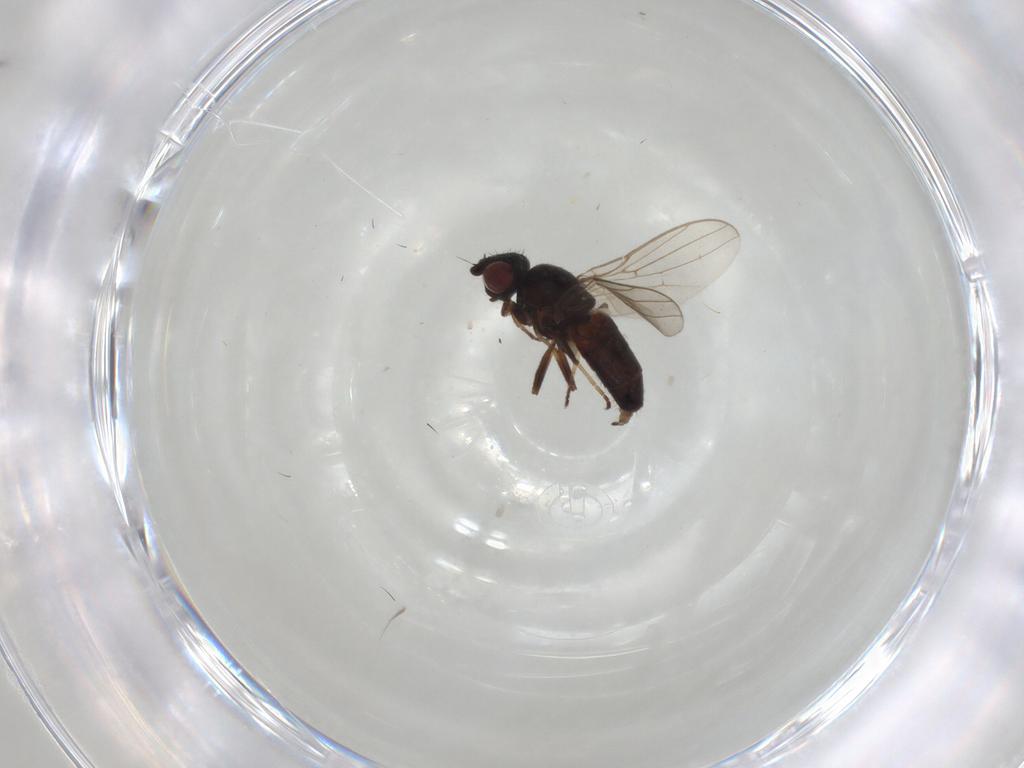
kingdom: Animalia
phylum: Arthropoda
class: Insecta
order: Diptera
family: Chloropidae
